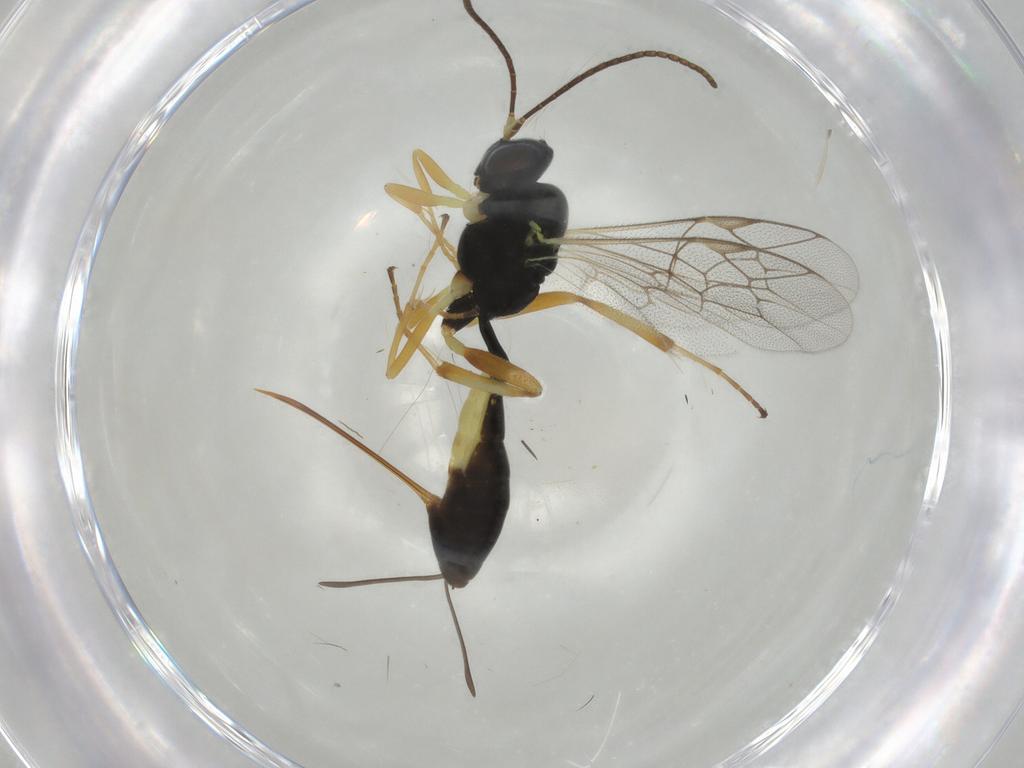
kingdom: Animalia
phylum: Arthropoda
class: Insecta
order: Hymenoptera
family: Ichneumonidae
